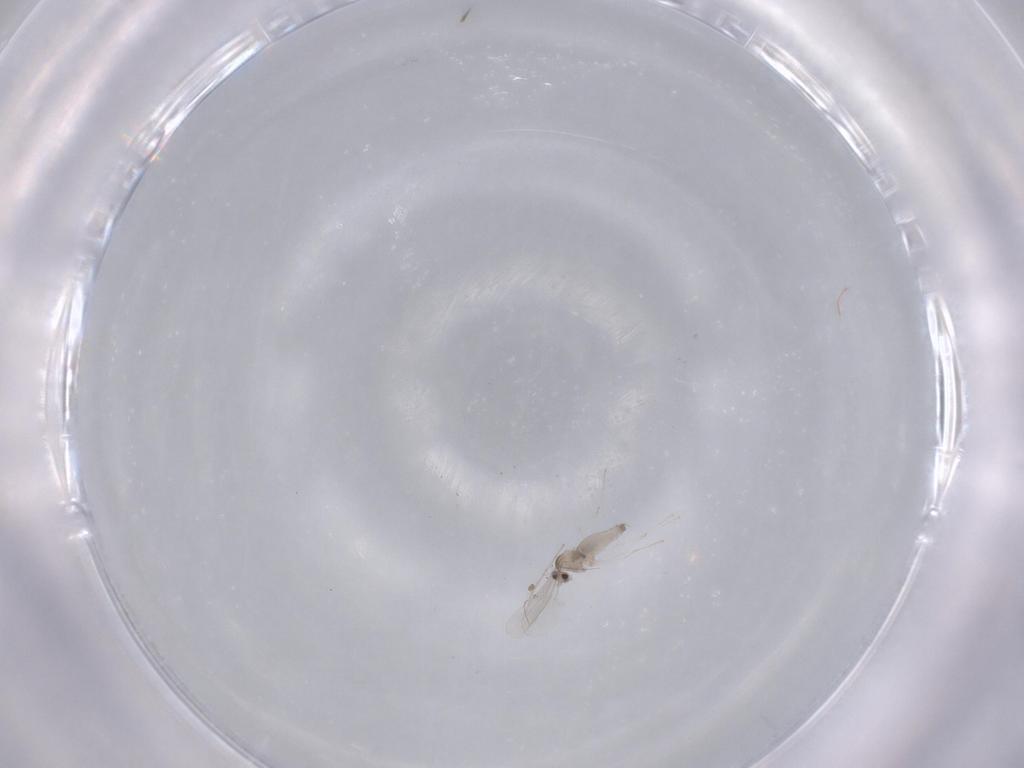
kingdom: Animalia
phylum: Arthropoda
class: Insecta
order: Diptera
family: Cecidomyiidae
